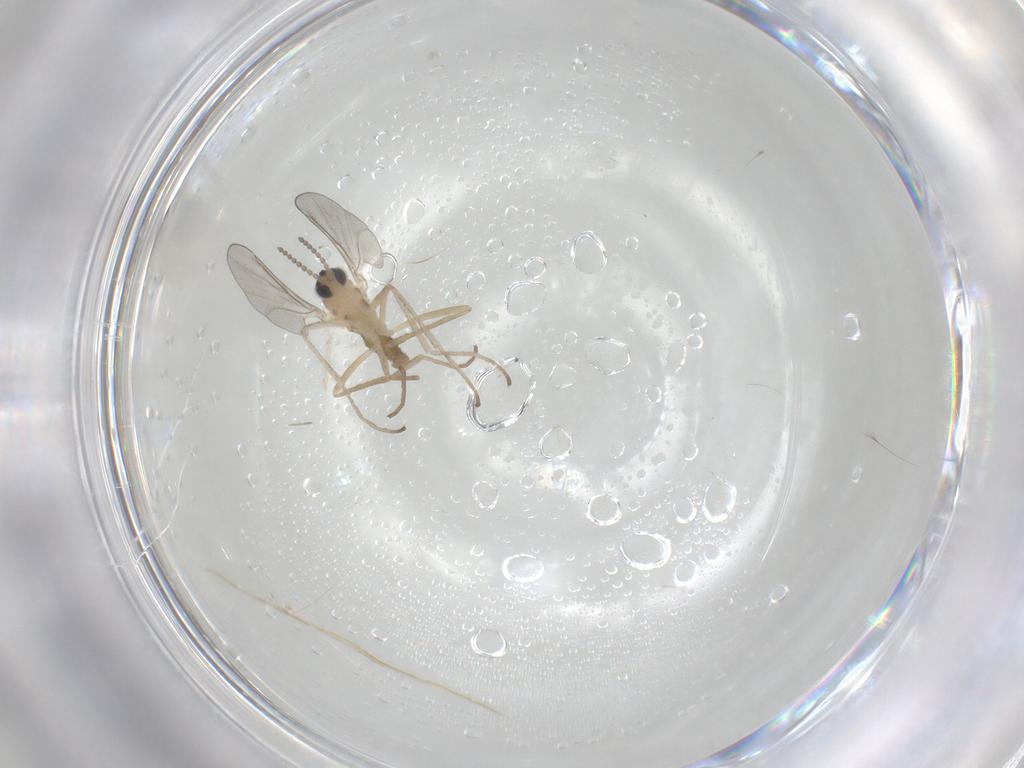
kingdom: Animalia
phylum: Arthropoda
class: Insecta
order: Diptera
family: Cecidomyiidae
